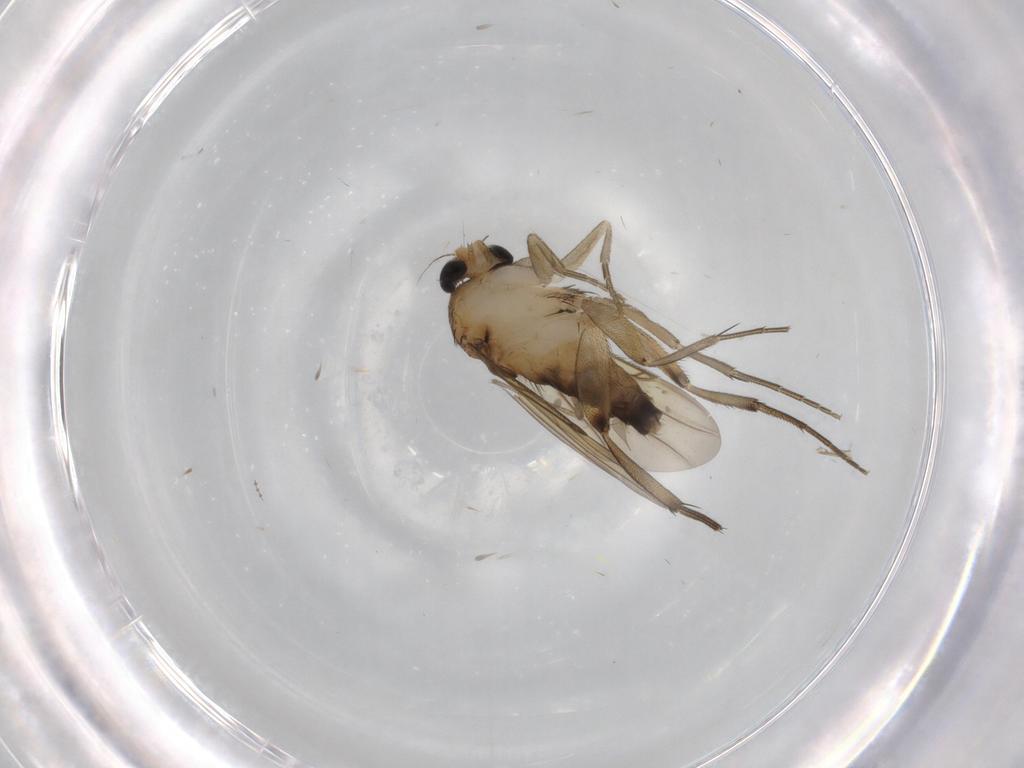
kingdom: Animalia
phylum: Arthropoda
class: Insecta
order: Diptera
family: Phoridae
